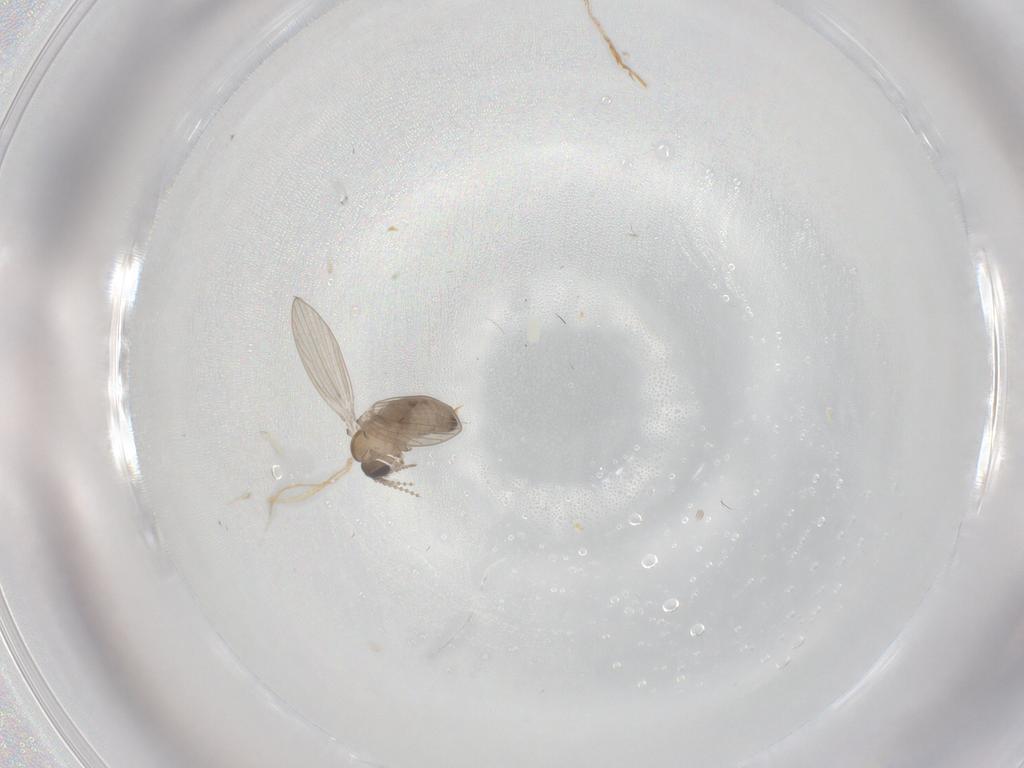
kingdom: Animalia
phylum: Arthropoda
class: Insecta
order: Diptera
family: Psychodidae
